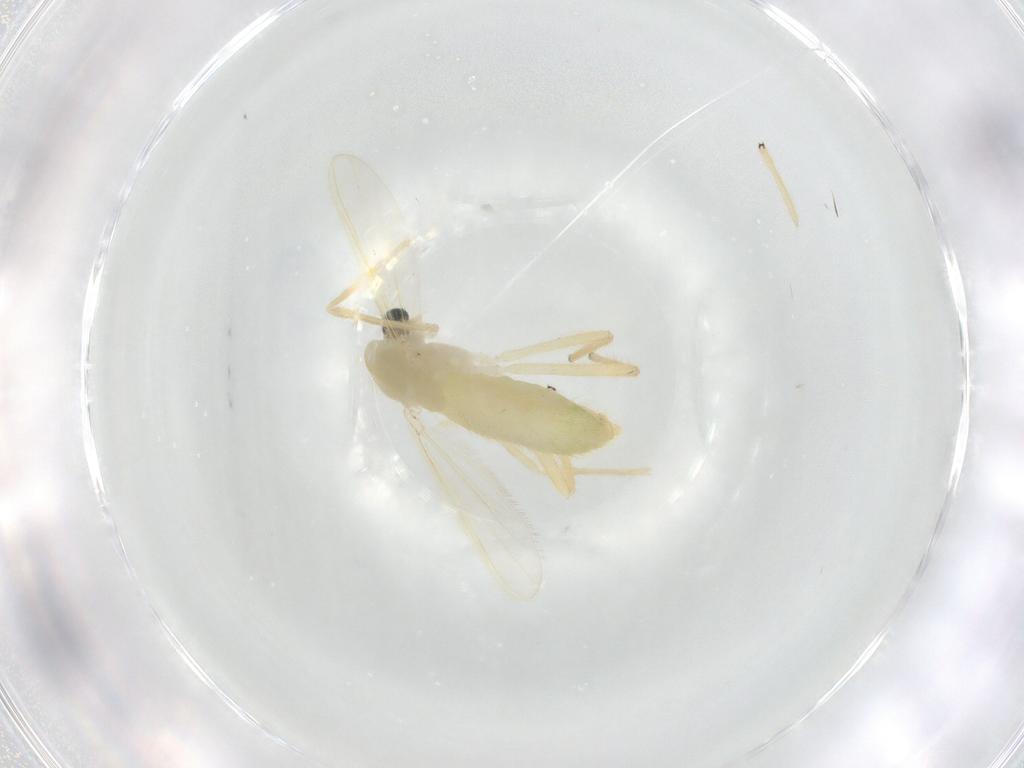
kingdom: Animalia
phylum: Arthropoda
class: Insecta
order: Diptera
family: Chironomidae
